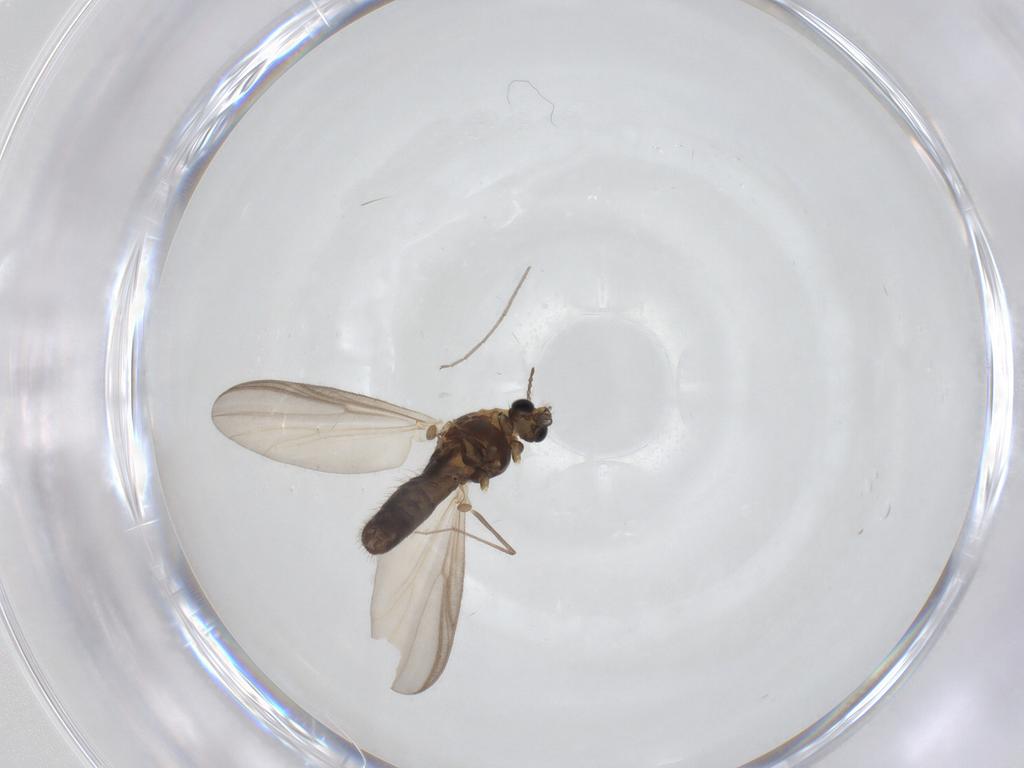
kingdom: Animalia
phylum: Arthropoda
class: Insecta
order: Diptera
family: Chironomidae
